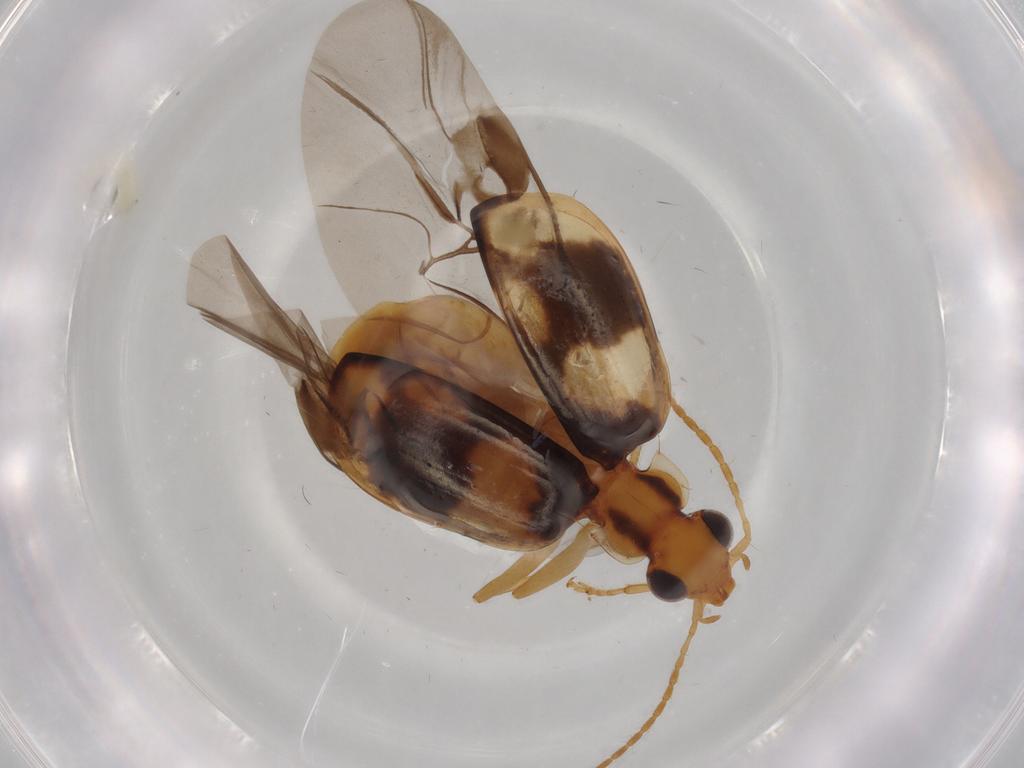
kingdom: Animalia
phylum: Arthropoda
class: Insecta
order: Coleoptera
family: Carabidae
